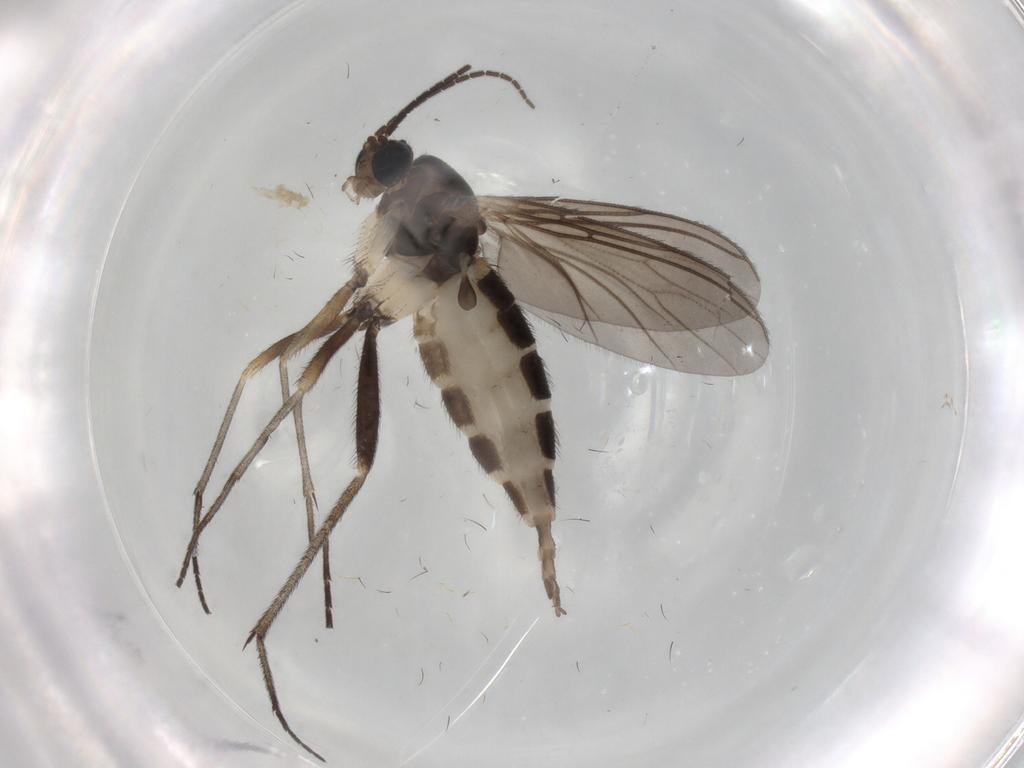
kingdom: Animalia
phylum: Arthropoda
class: Insecta
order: Diptera
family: Sciaridae
